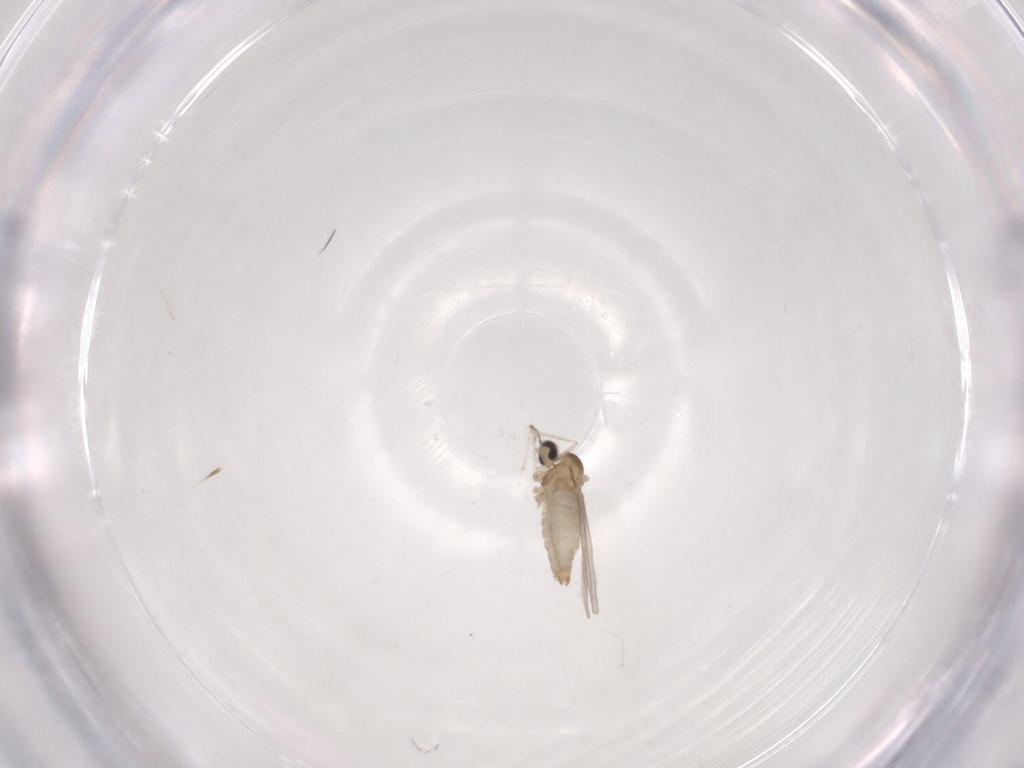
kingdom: Animalia
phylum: Arthropoda
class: Insecta
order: Diptera
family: Cecidomyiidae
